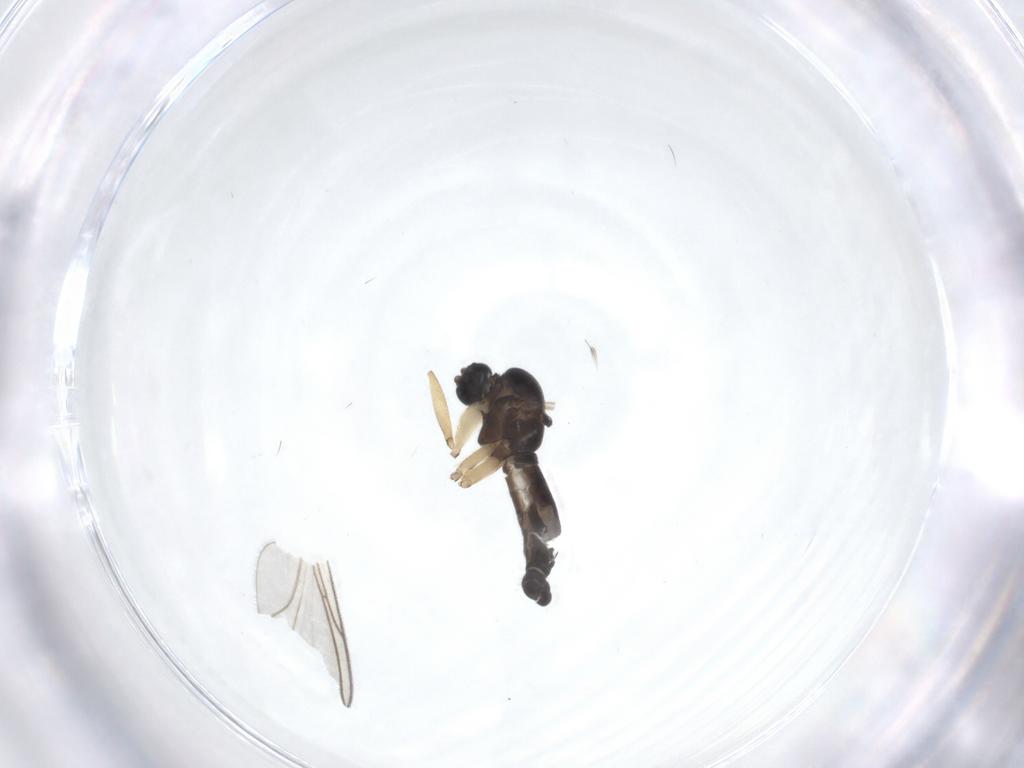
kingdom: Animalia
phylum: Arthropoda
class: Insecta
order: Diptera
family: Sciaridae
